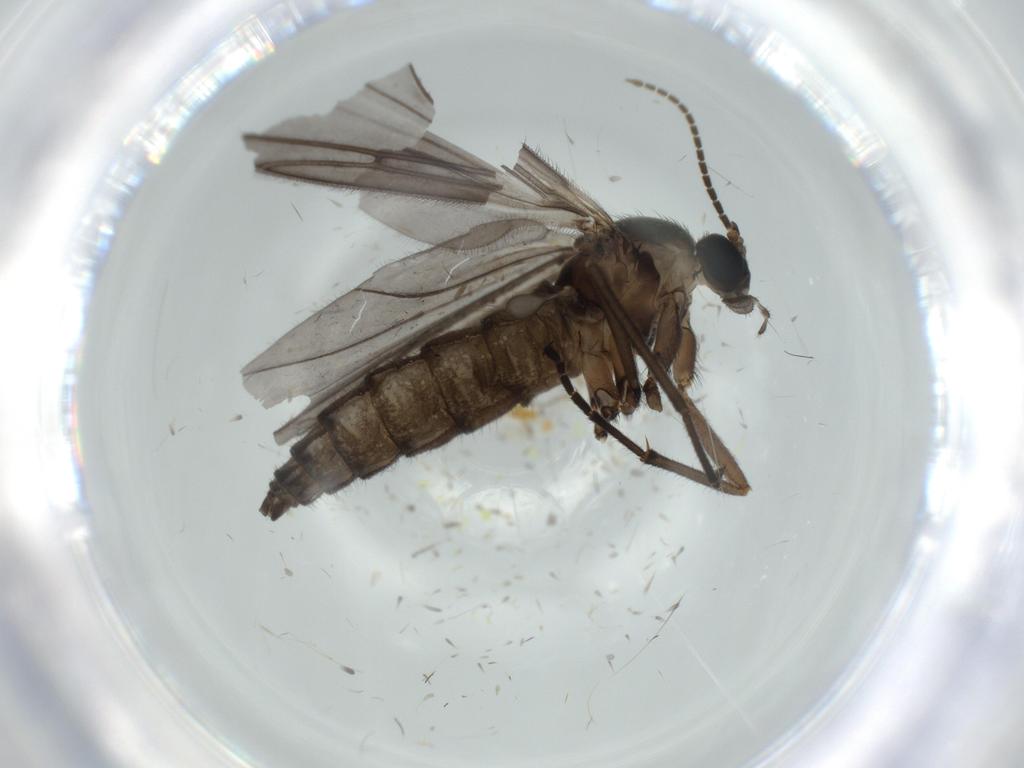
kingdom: Animalia
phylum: Arthropoda
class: Insecta
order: Diptera
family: Sciaridae
